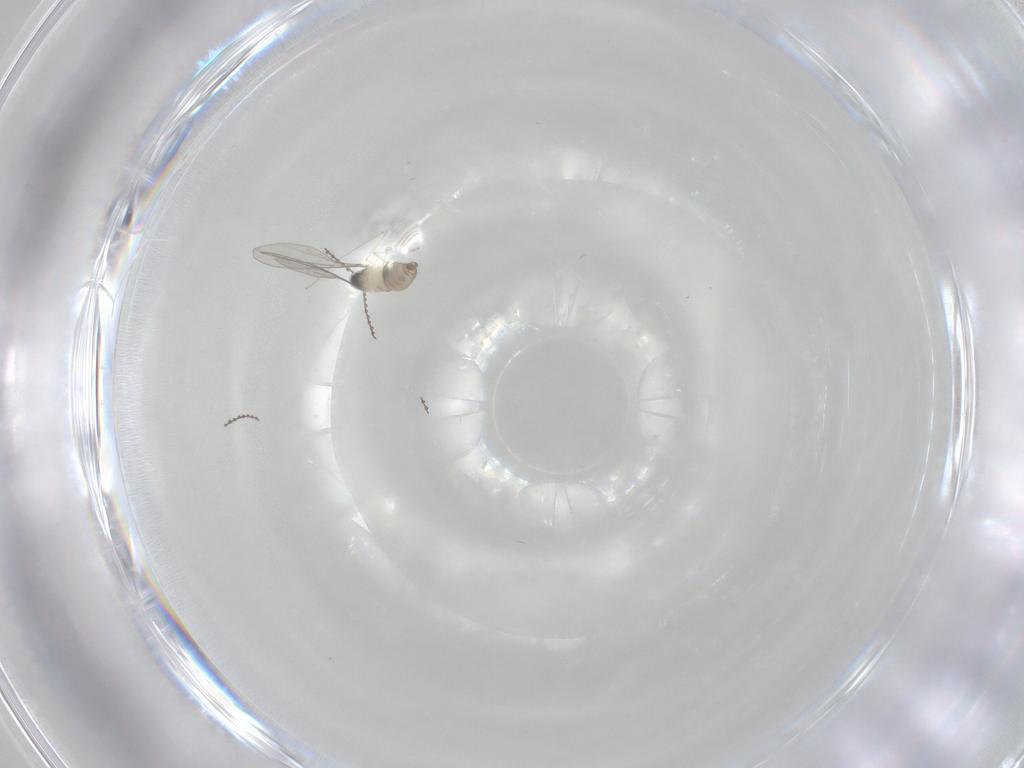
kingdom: Animalia
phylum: Arthropoda
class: Insecta
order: Diptera
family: Cecidomyiidae
